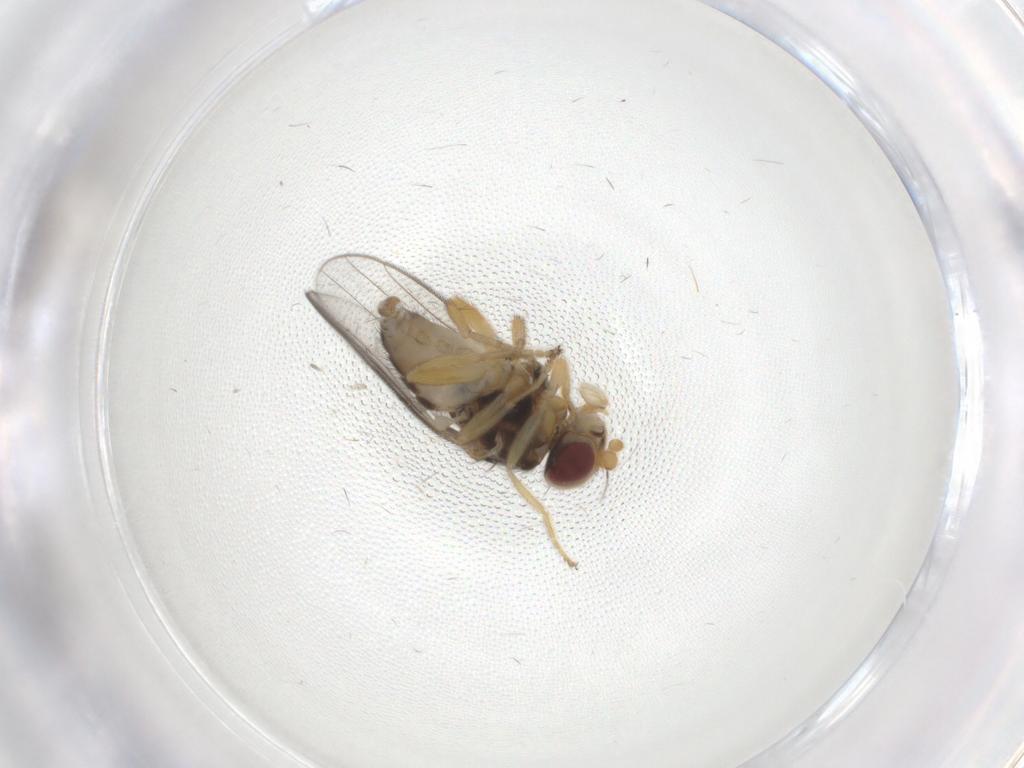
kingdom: Animalia
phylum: Arthropoda
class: Insecta
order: Diptera
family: Chloropidae
